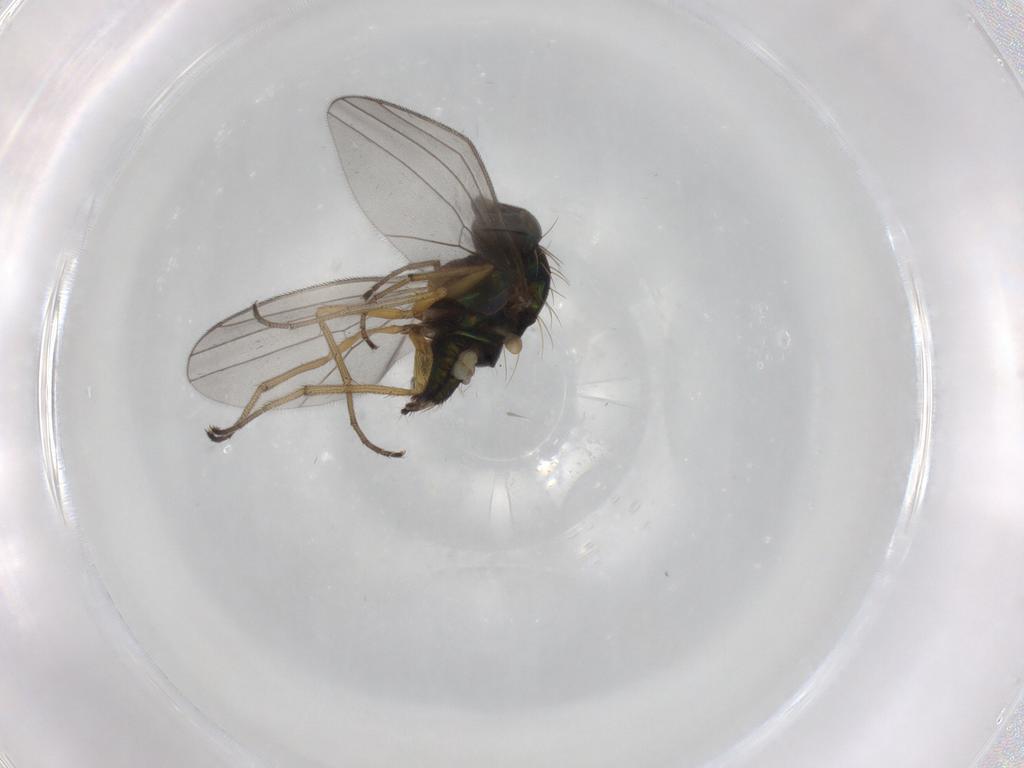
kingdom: Animalia
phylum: Arthropoda
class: Insecta
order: Diptera
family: Dolichopodidae
